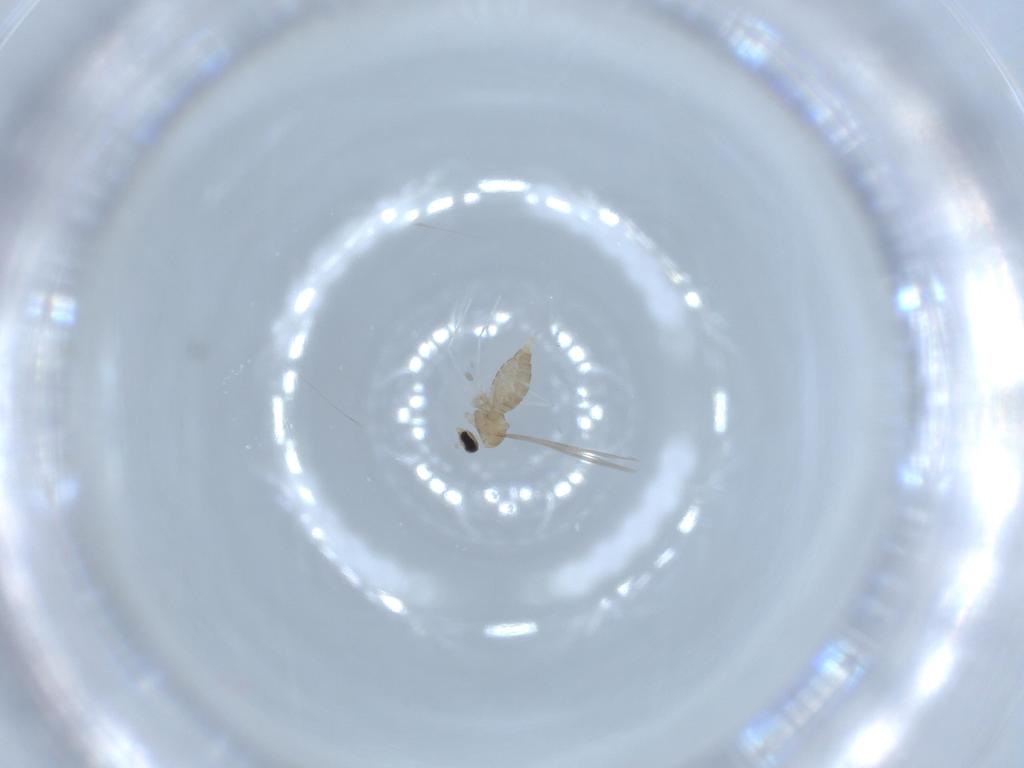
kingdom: Animalia
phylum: Arthropoda
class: Insecta
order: Diptera
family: Cecidomyiidae
